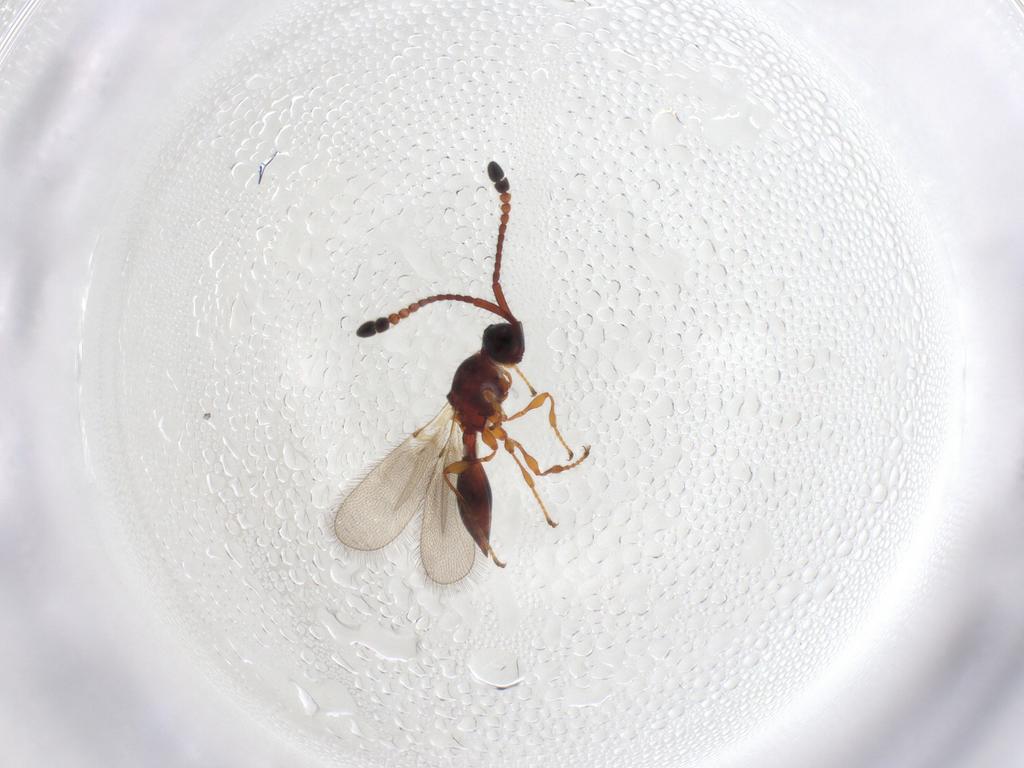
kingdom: Animalia
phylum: Arthropoda
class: Insecta
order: Hymenoptera
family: Diapriidae
